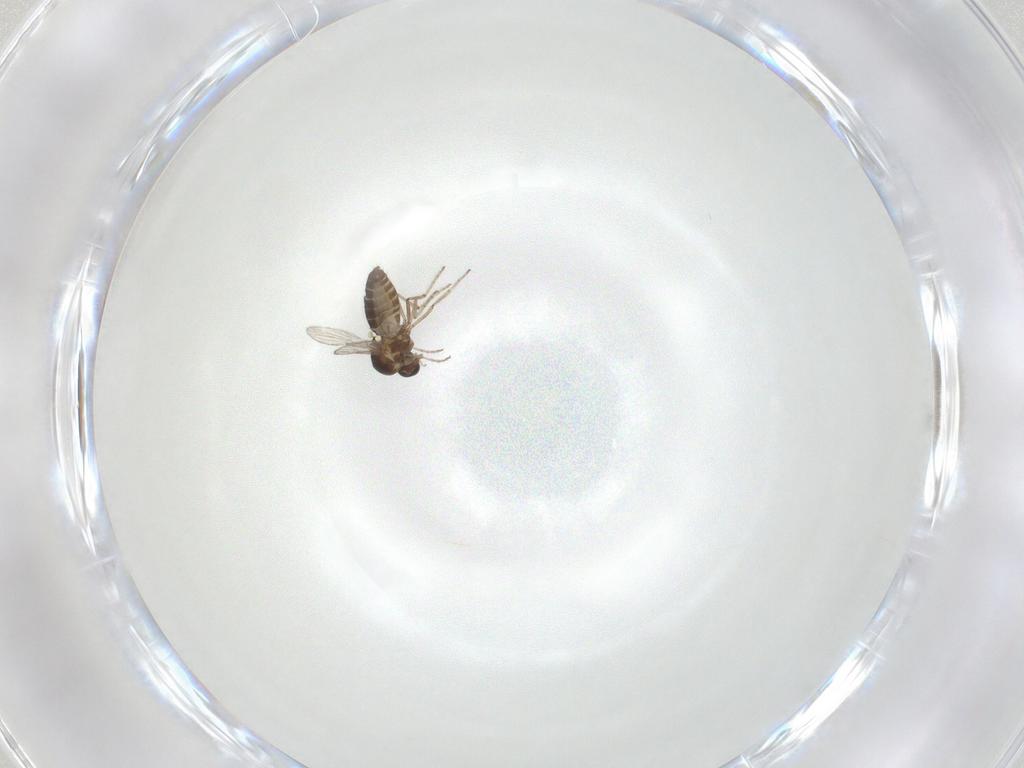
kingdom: Animalia
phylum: Arthropoda
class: Insecta
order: Diptera
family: Ceratopogonidae
